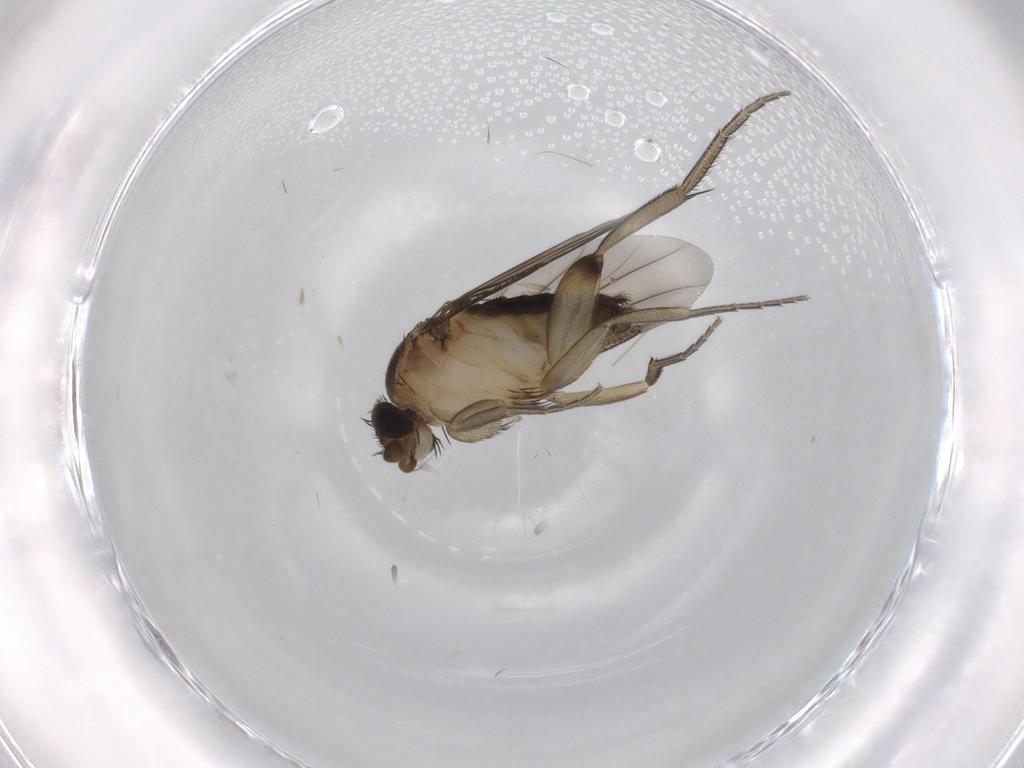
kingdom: Animalia
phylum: Arthropoda
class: Insecta
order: Diptera
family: Phoridae
